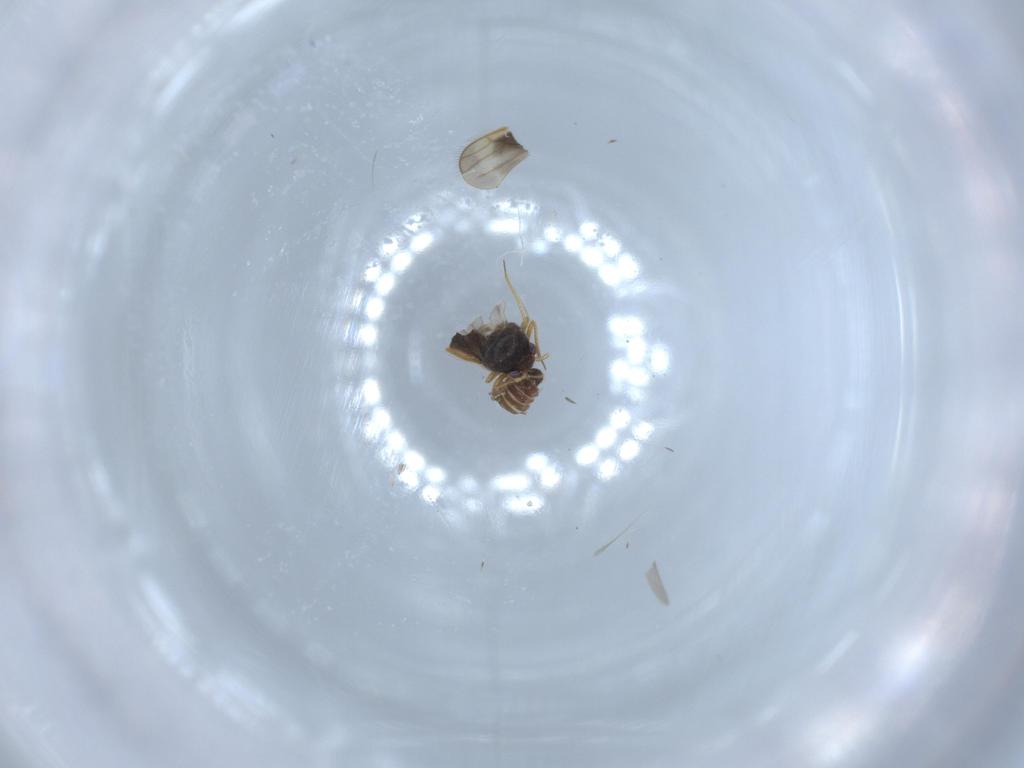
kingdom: Animalia
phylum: Arthropoda
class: Insecta
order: Hemiptera
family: Schizopteridae
